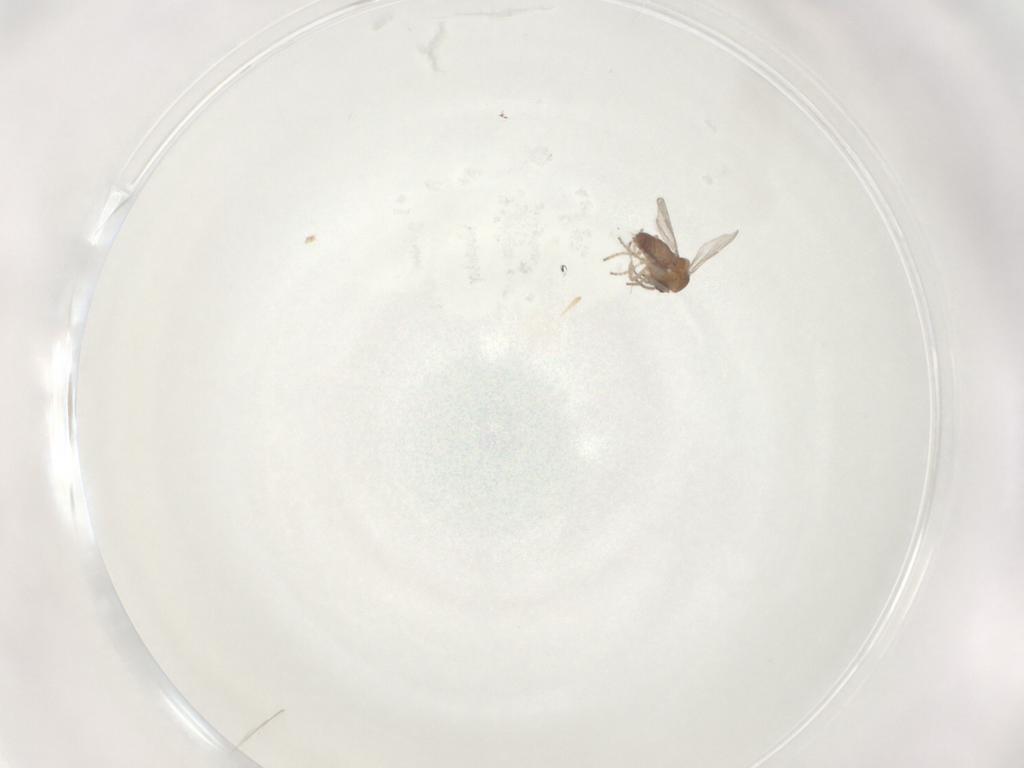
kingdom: Animalia
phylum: Arthropoda
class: Insecta
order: Diptera
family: Ceratopogonidae
